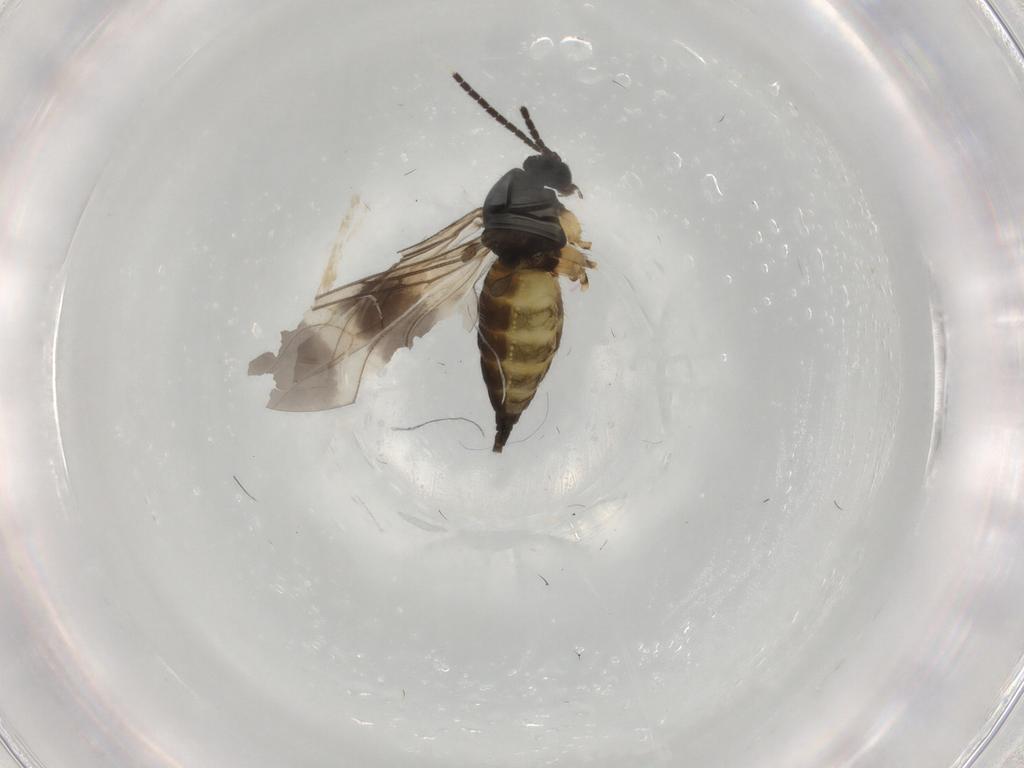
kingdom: Animalia
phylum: Arthropoda
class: Insecta
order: Diptera
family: Sciaridae
